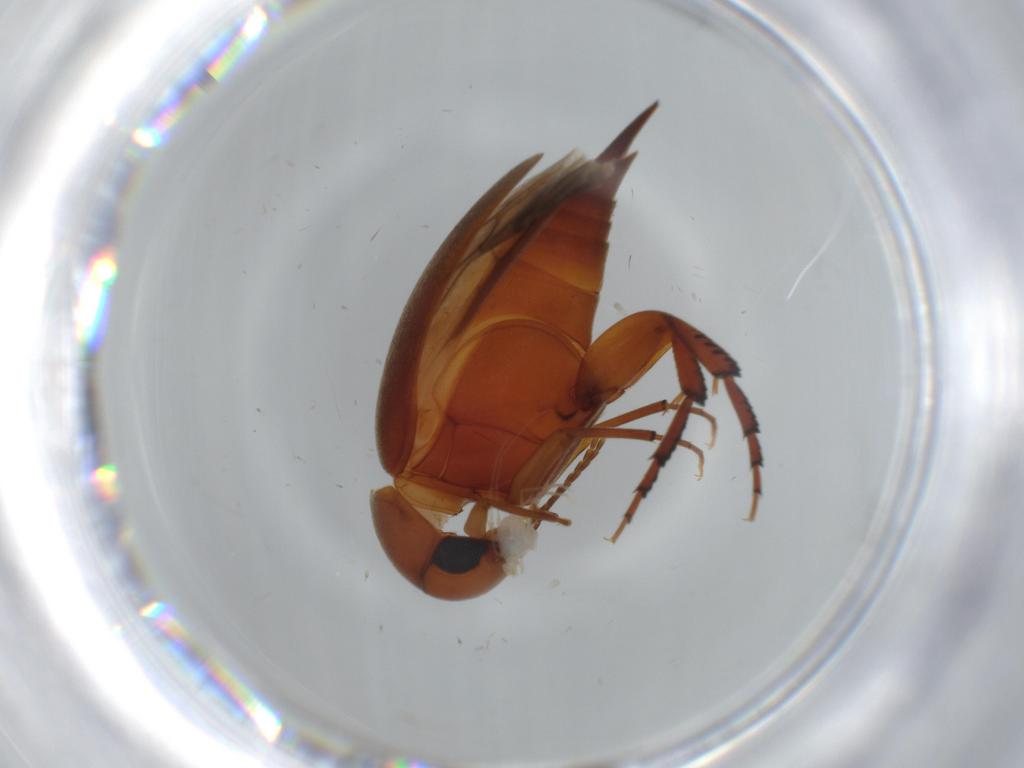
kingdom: Animalia
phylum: Arthropoda
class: Insecta
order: Coleoptera
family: Mordellidae
